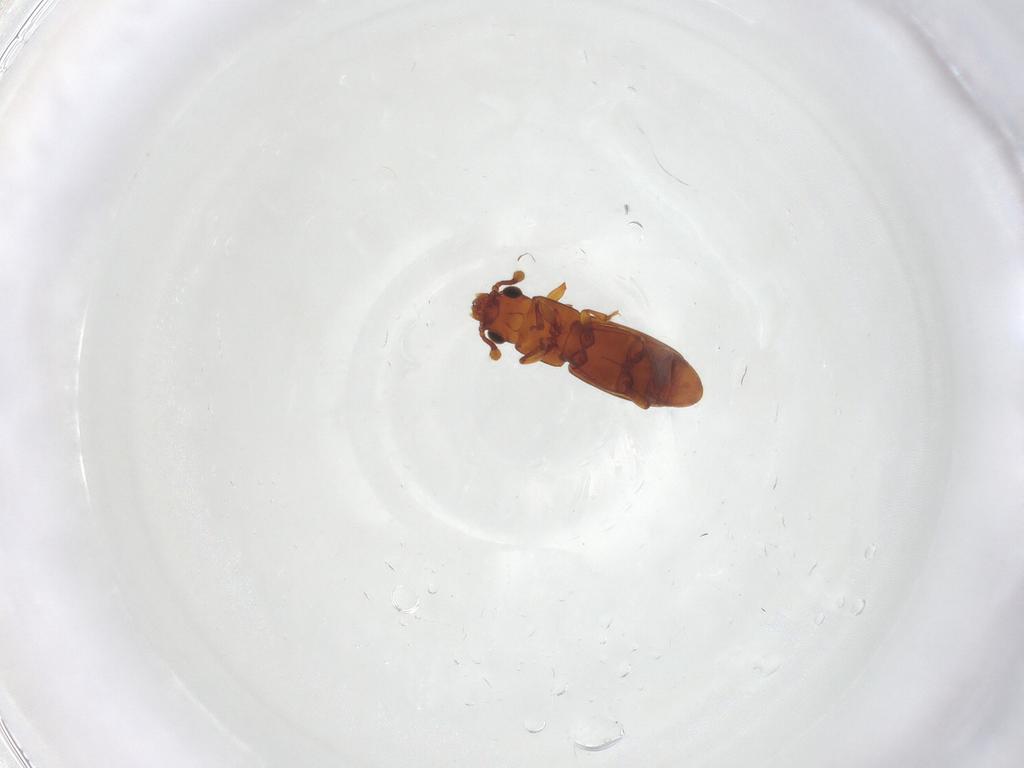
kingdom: Animalia
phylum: Arthropoda
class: Insecta
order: Coleoptera
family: Monotomidae
